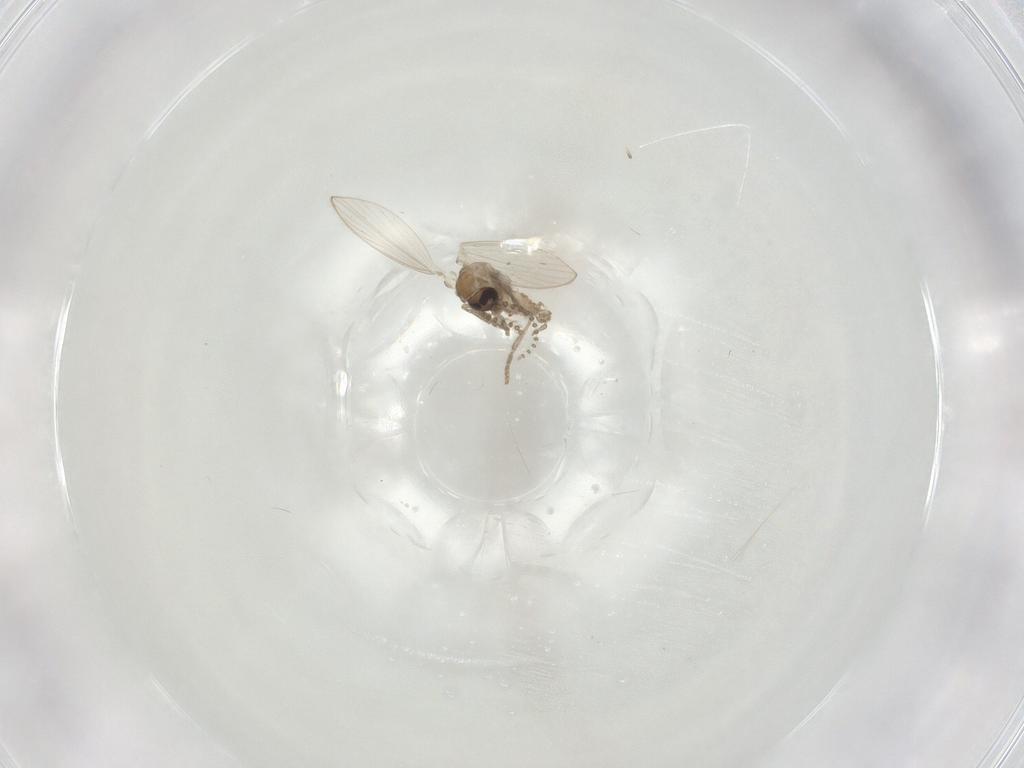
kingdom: Animalia
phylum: Arthropoda
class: Insecta
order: Diptera
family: Psychodidae
